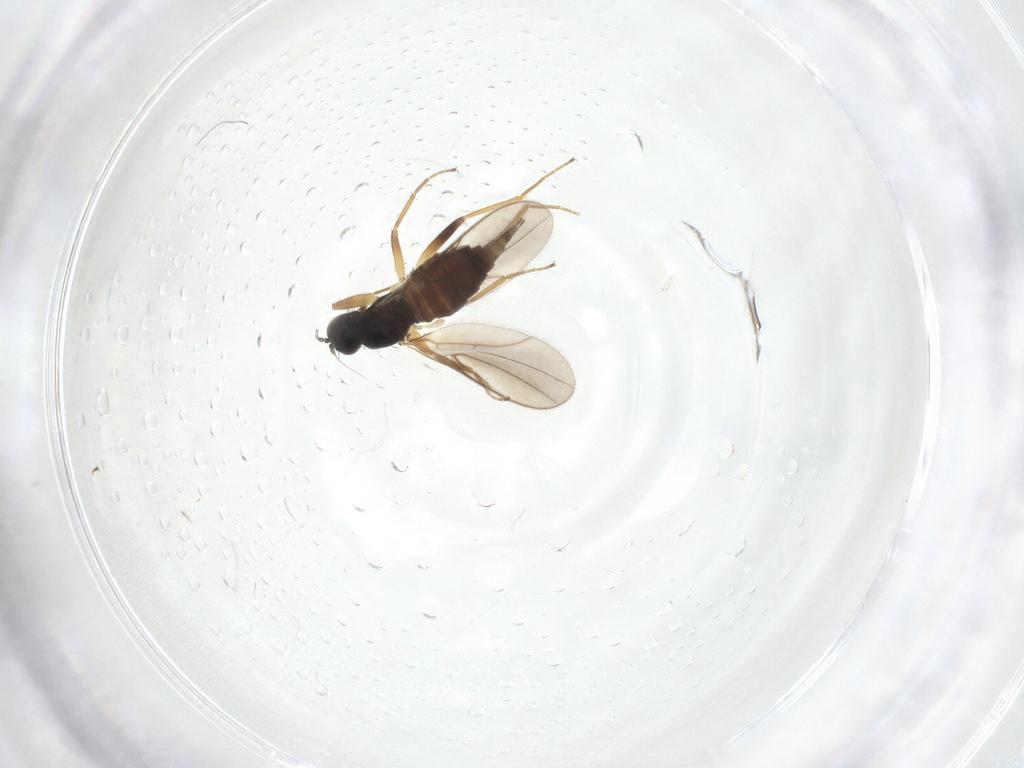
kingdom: Animalia
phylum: Arthropoda
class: Insecta
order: Diptera
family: Hybotidae
